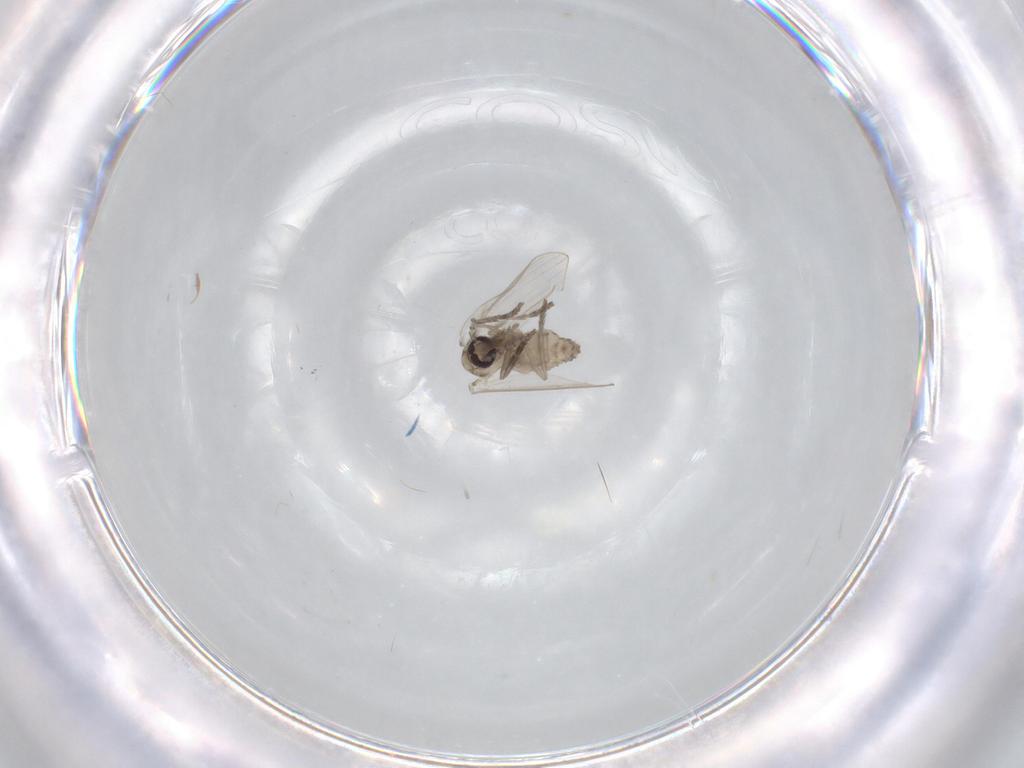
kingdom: Animalia
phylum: Arthropoda
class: Insecta
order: Diptera
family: Psychodidae
